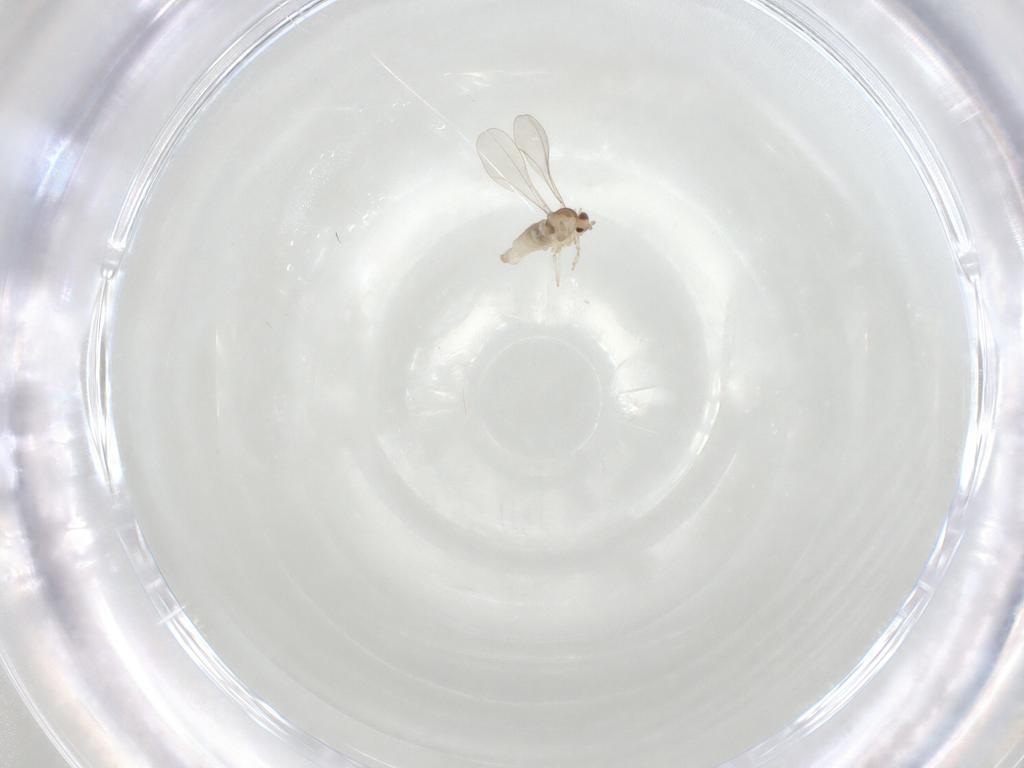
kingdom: Animalia
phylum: Arthropoda
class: Insecta
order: Diptera
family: Cecidomyiidae
